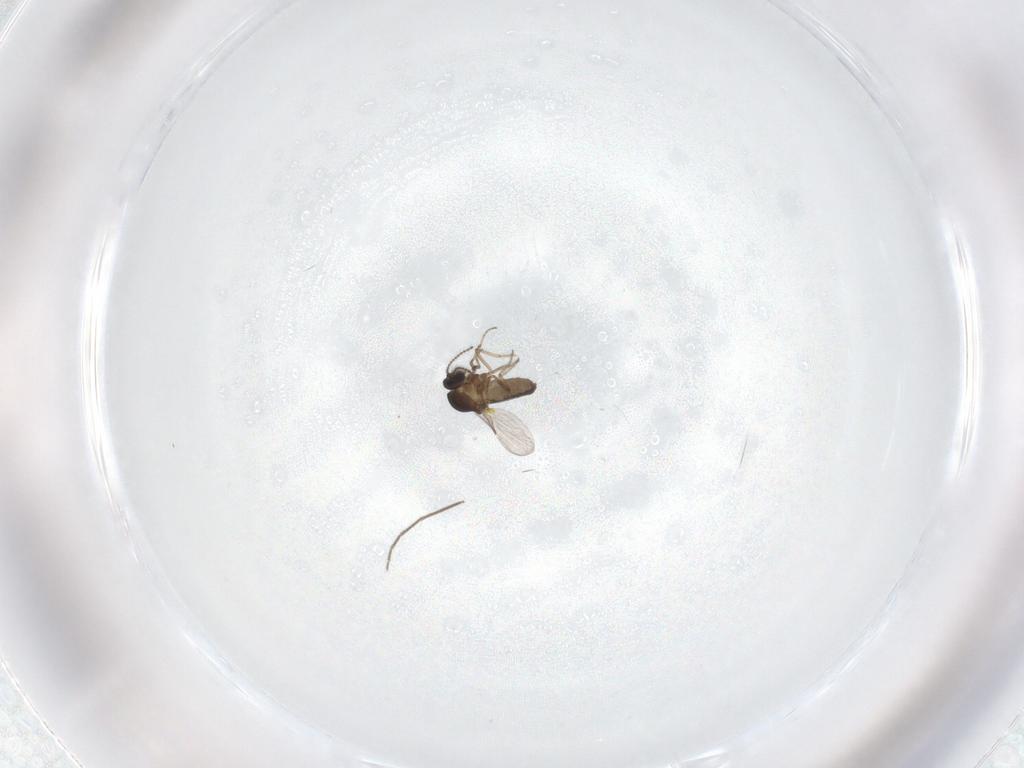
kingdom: Animalia
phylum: Arthropoda
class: Insecta
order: Diptera
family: Ceratopogonidae
